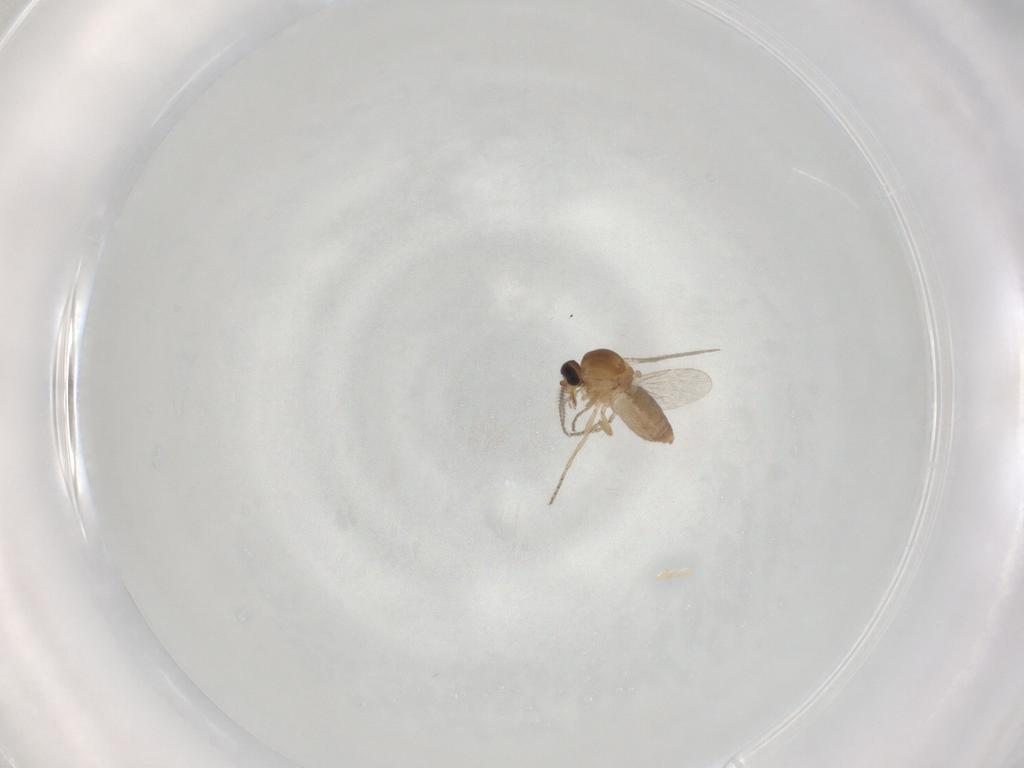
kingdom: Animalia
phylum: Arthropoda
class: Insecta
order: Diptera
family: Ceratopogonidae
